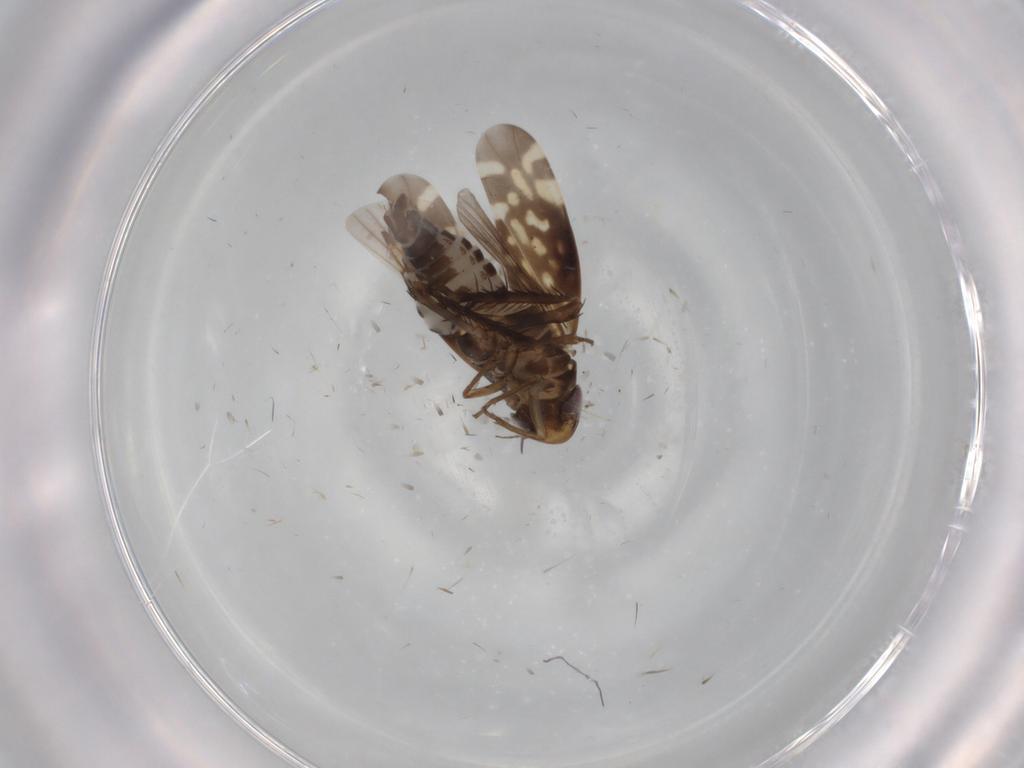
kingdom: Animalia
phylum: Arthropoda
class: Insecta
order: Hemiptera
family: Cicadellidae
